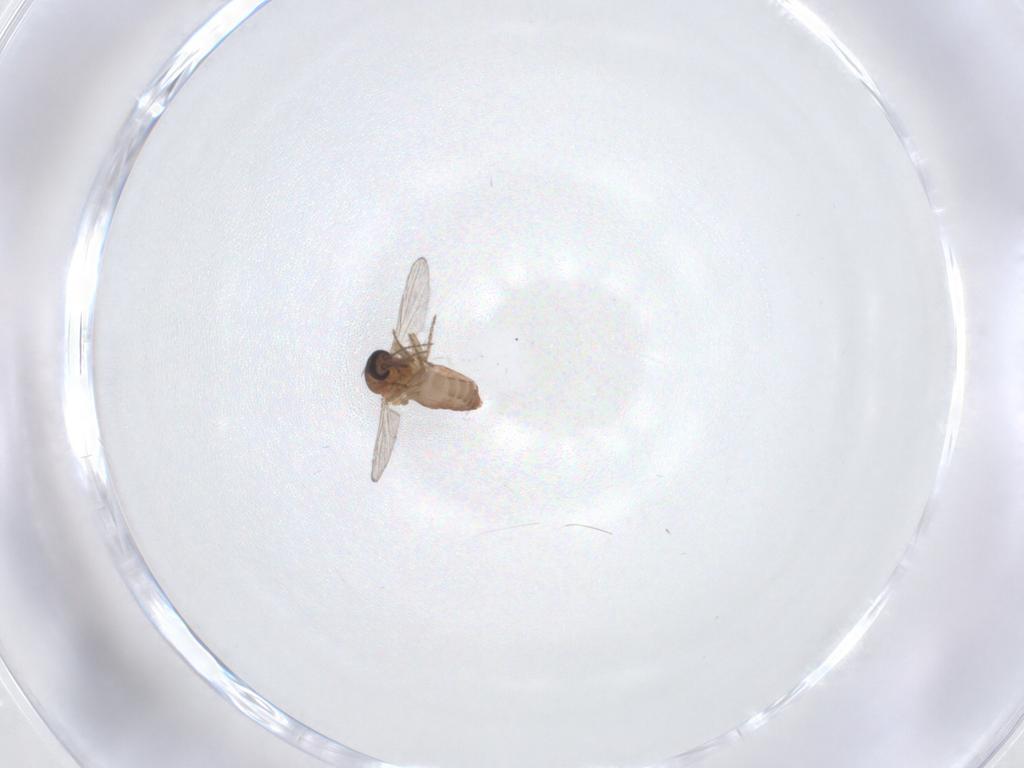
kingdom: Animalia
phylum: Arthropoda
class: Insecta
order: Diptera
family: Ceratopogonidae
